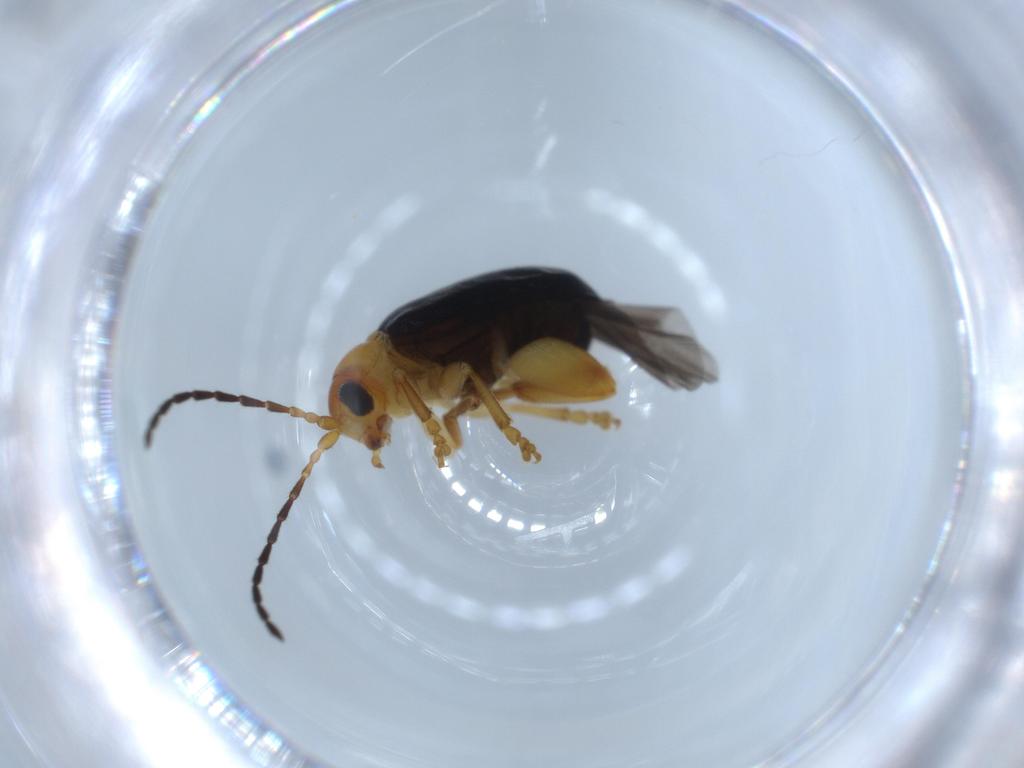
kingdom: Animalia
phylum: Arthropoda
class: Insecta
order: Coleoptera
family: Chrysomelidae
